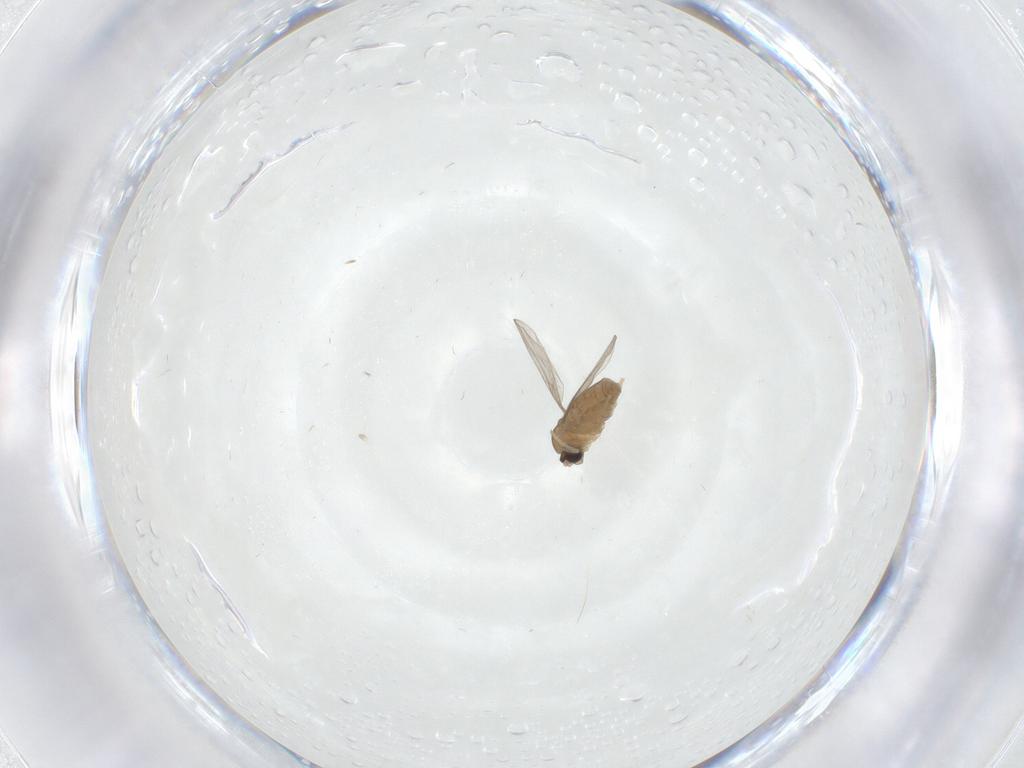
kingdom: Animalia
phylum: Arthropoda
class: Insecta
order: Diptera
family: Cecidomyiidae
